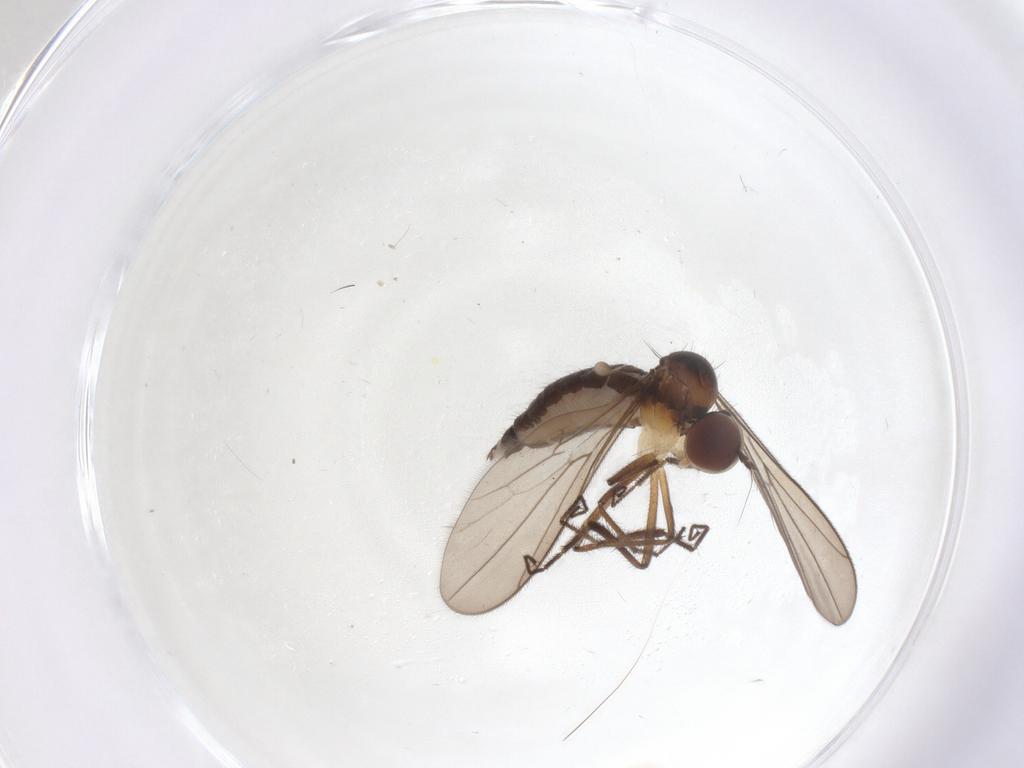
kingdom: Animalia
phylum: Arthropoda
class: Insecta
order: Diptera
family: Hybotidae
